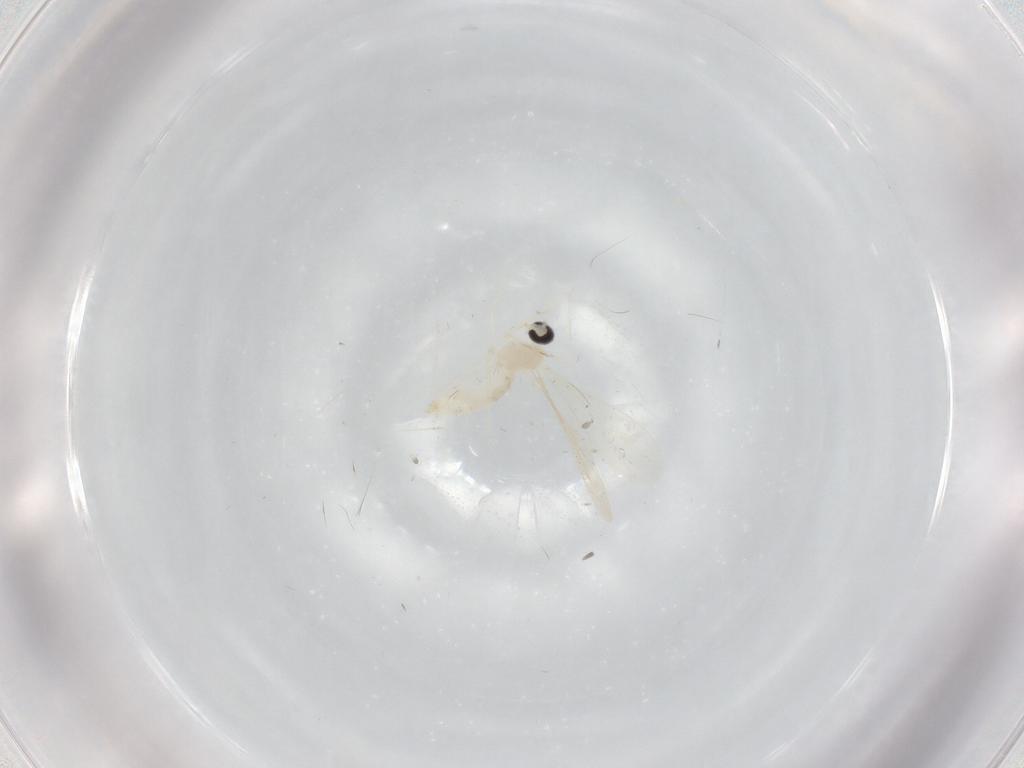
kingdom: Animalia
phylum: Arthropoda
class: Insecta
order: Diptera
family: Cecidomyiidae
